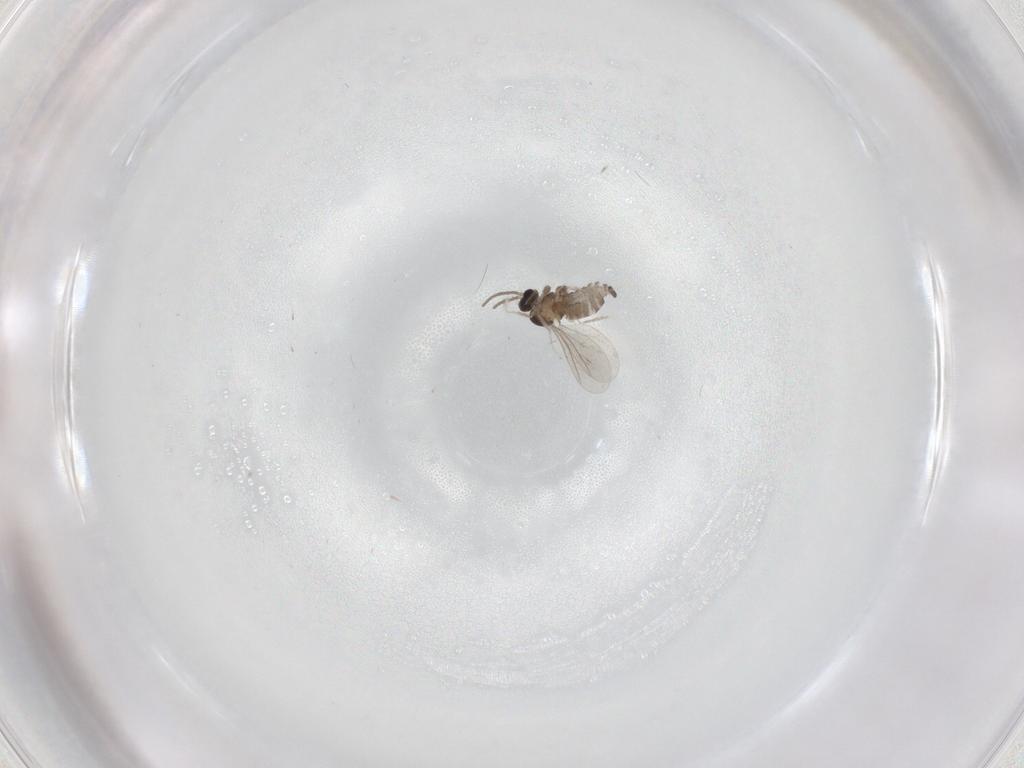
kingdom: Animalia
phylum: Arthropoda
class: Insecta
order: Diptera
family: Cecidomyiidae
